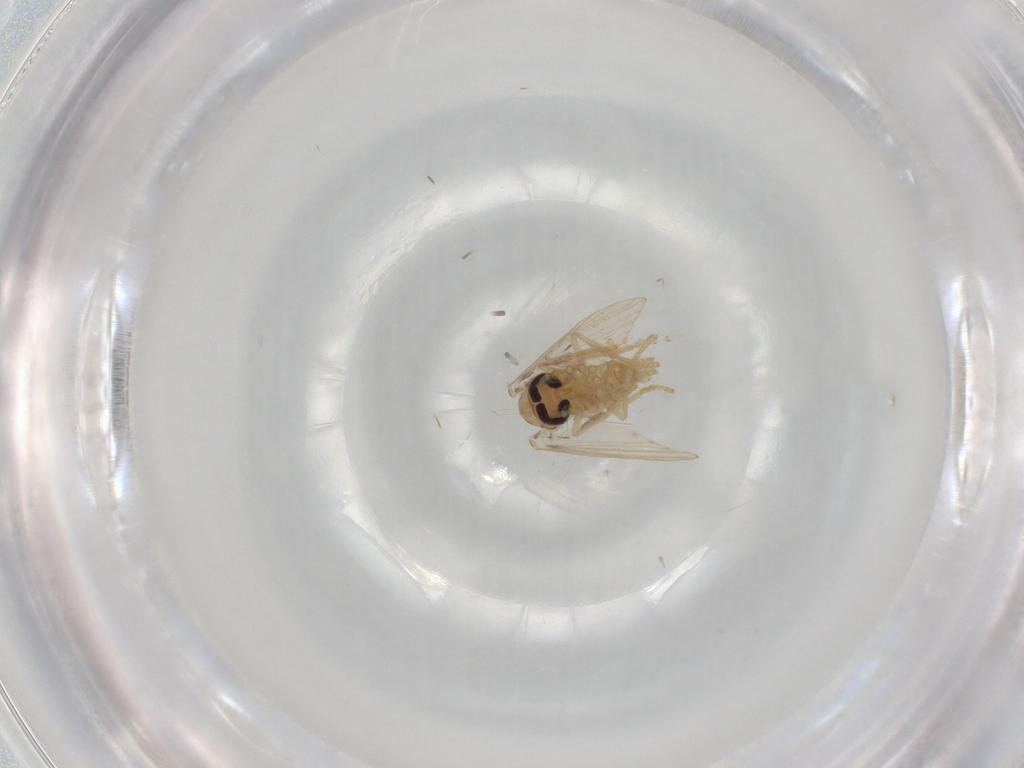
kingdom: Animalia
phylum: Arthropoda
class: Insecta
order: Diptera
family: Psychodidae
